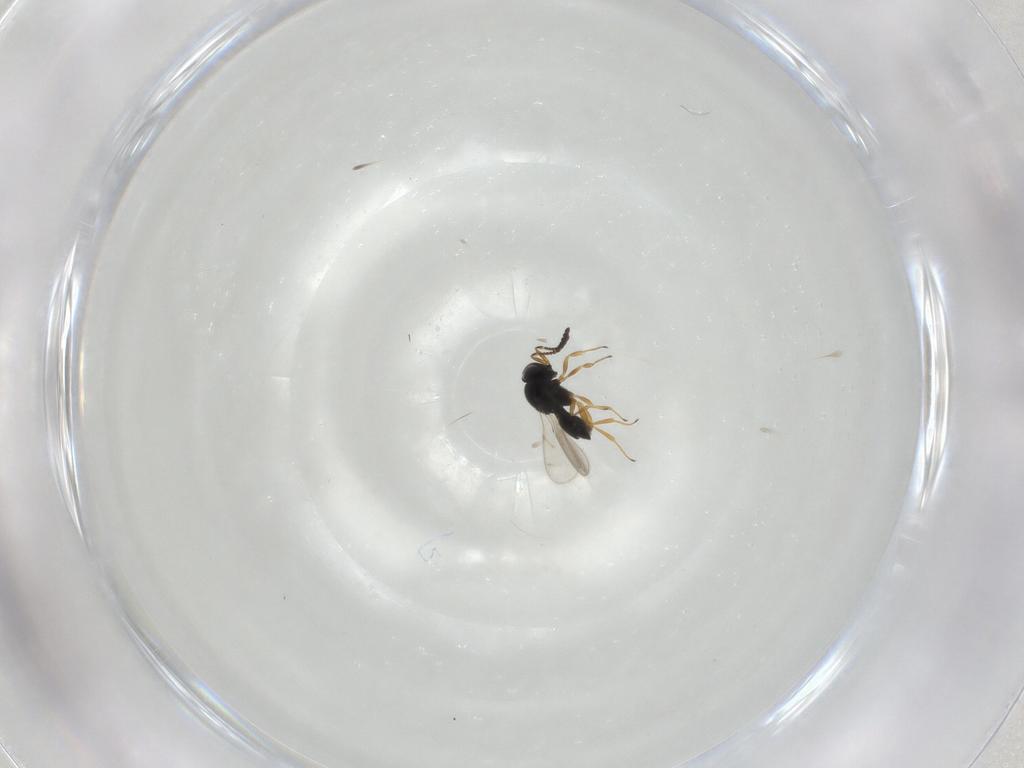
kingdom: Animalia
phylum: Arthropoda
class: Insecta
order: Hymenoptera
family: Scelionidae
